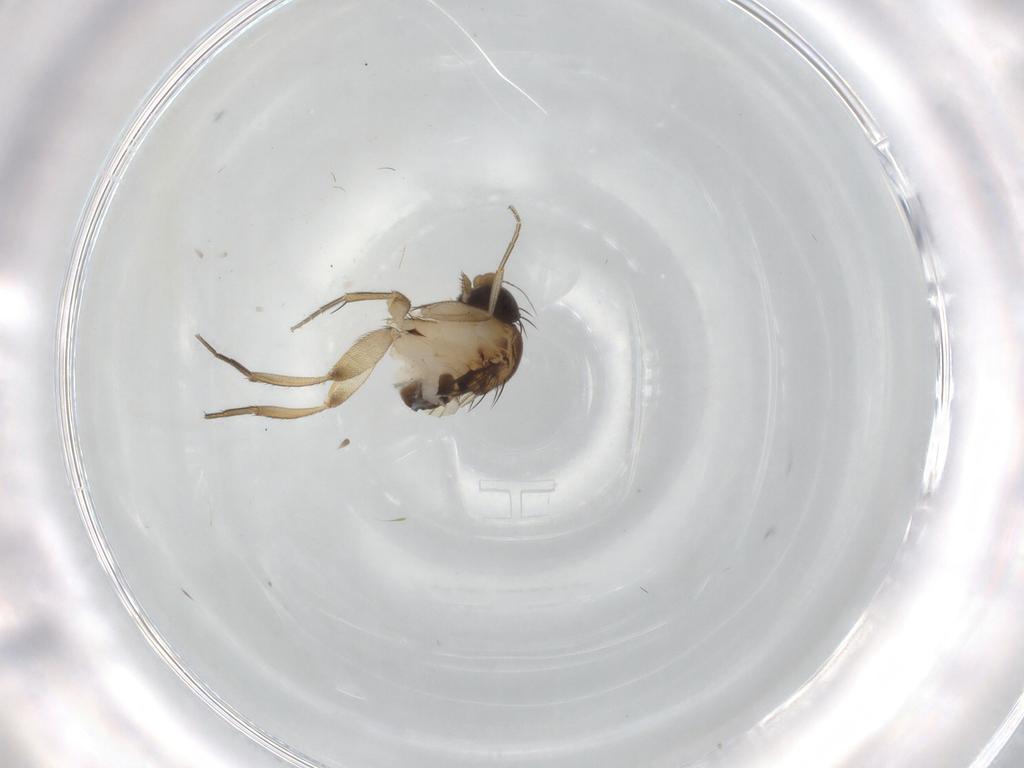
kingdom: Animalia
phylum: Arthropoda
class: Insecta
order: Diptera
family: Phoridae
